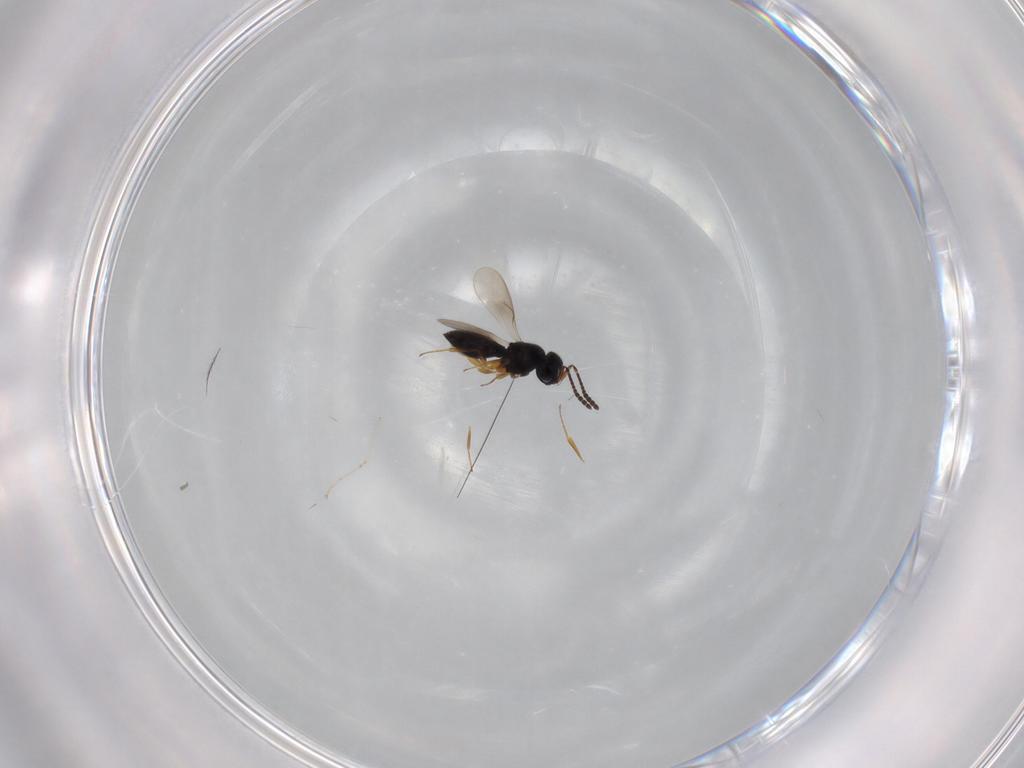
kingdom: Animalia
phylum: Arthropoda
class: Insecta
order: Hymenoptera
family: Scelionidae
